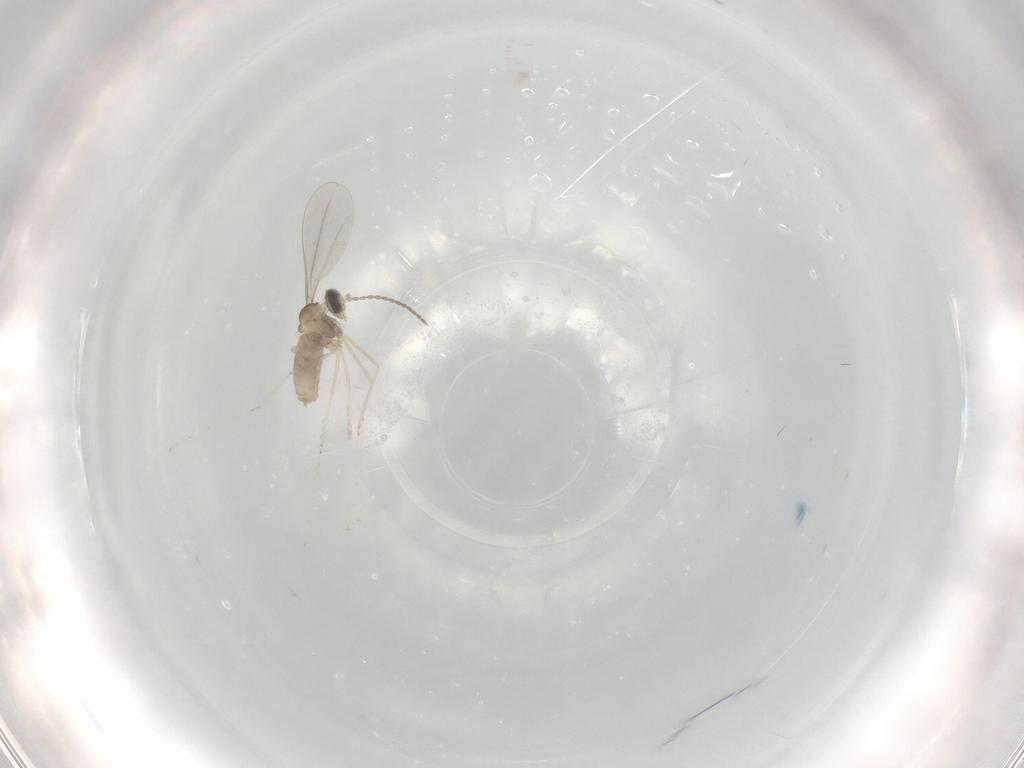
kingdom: Animalia
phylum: Arthropoda
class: Insecta
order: Diptera
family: Cecidomyiidae
